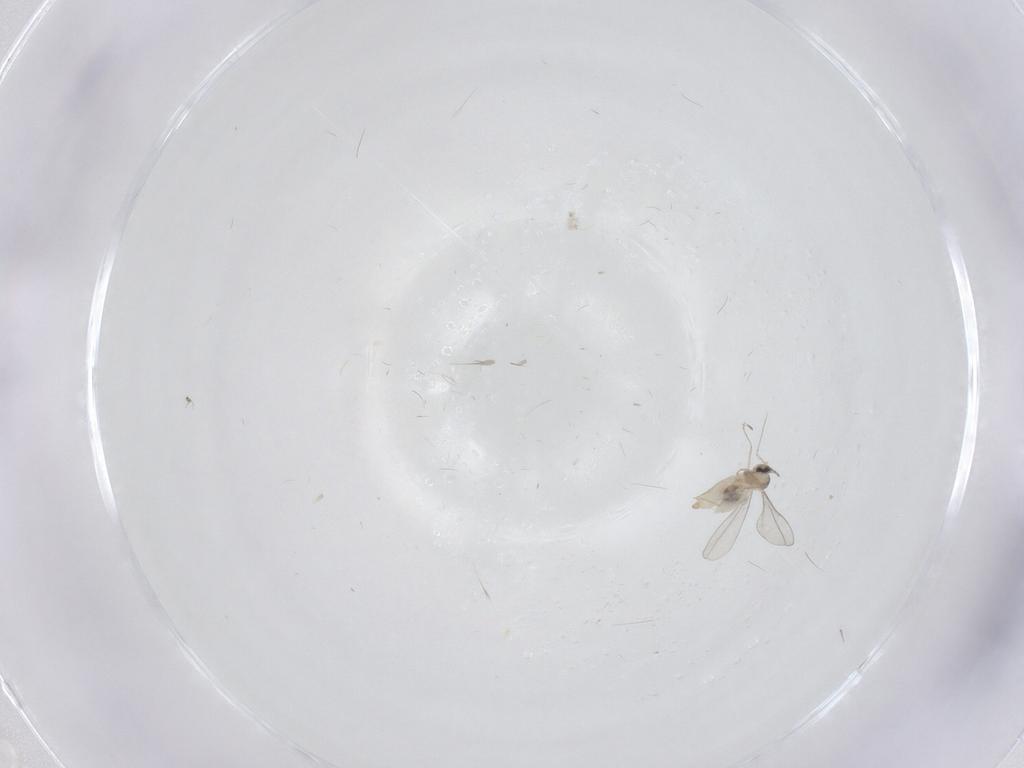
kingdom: Animalia
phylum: Arthropoda
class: Insecta
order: Diptera
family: Cecidomyiidae
